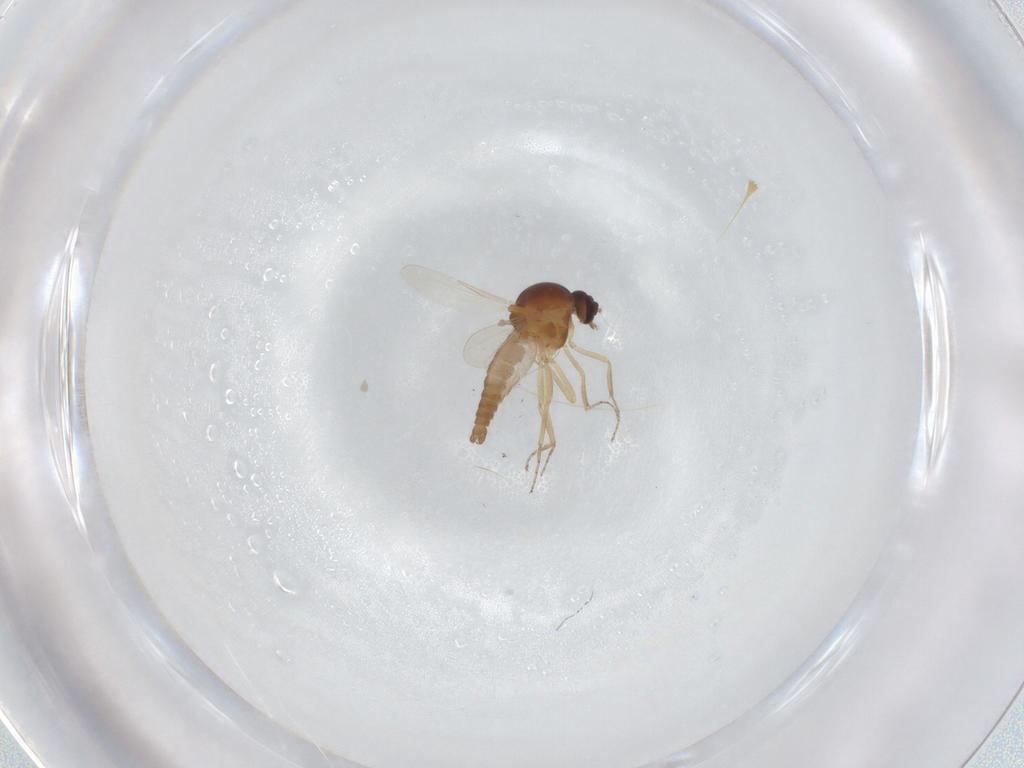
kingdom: Animalia
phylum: Arthropoda
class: Insecta
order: Diptera
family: Ceratopogonidae
